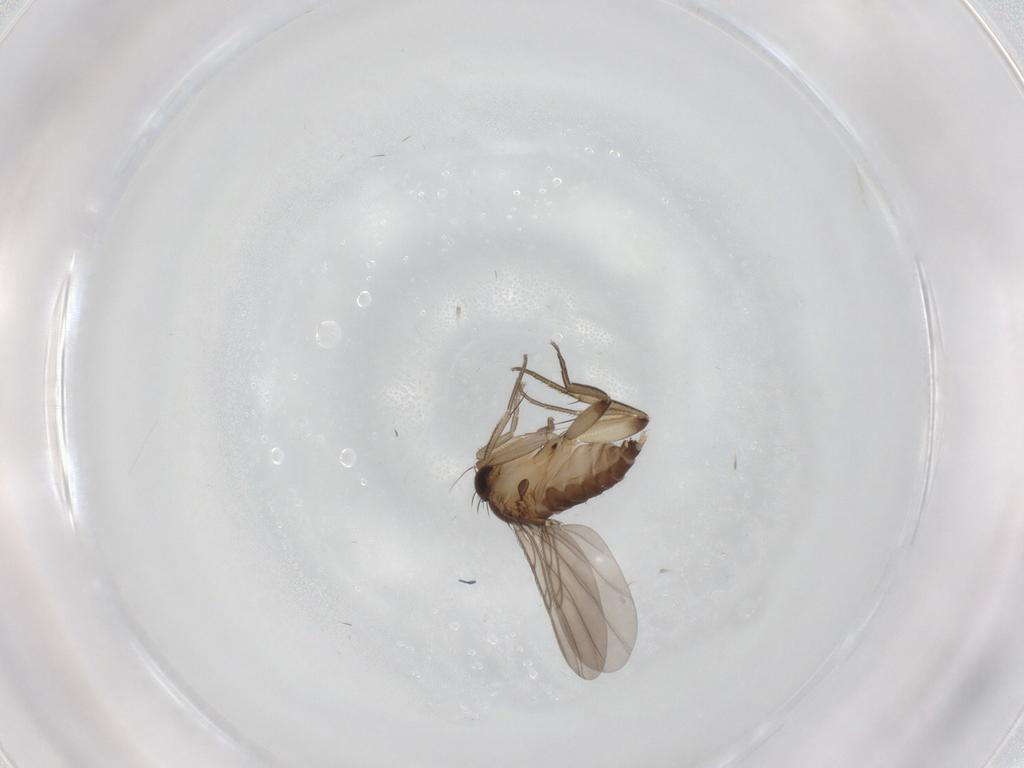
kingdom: Animalia
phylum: Arthropoda
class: Insecta
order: Diptera
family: Phoridae
